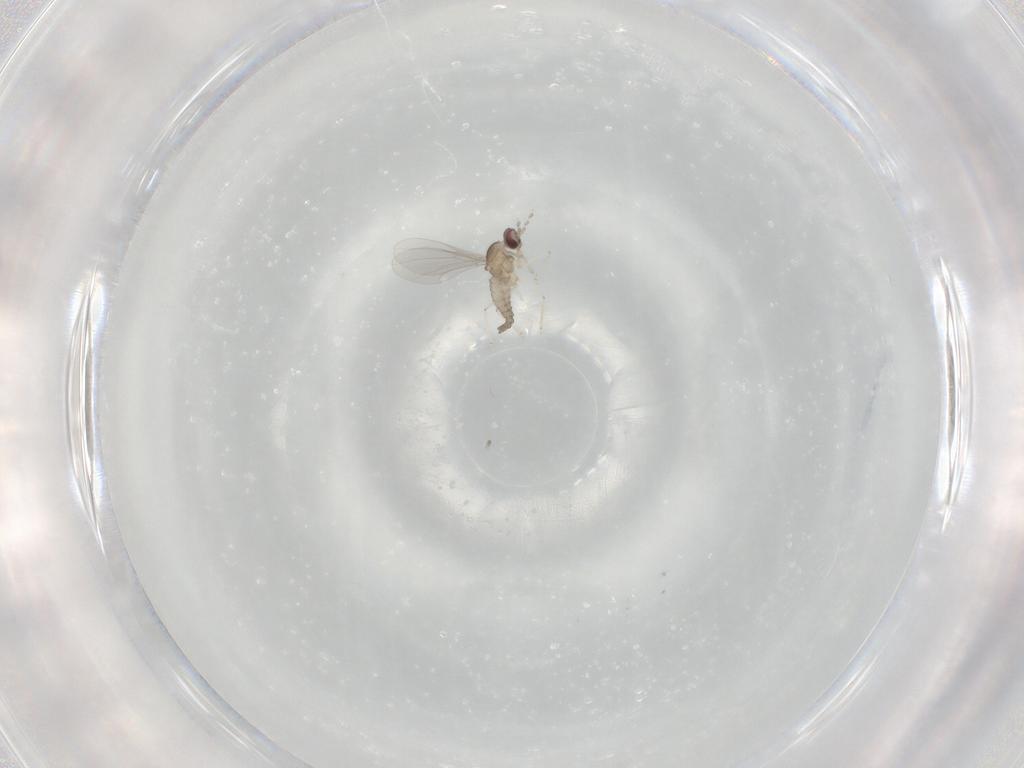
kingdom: Animalia
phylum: Arthropoda
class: Insecta
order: Diptera
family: Cecidomyiidae
